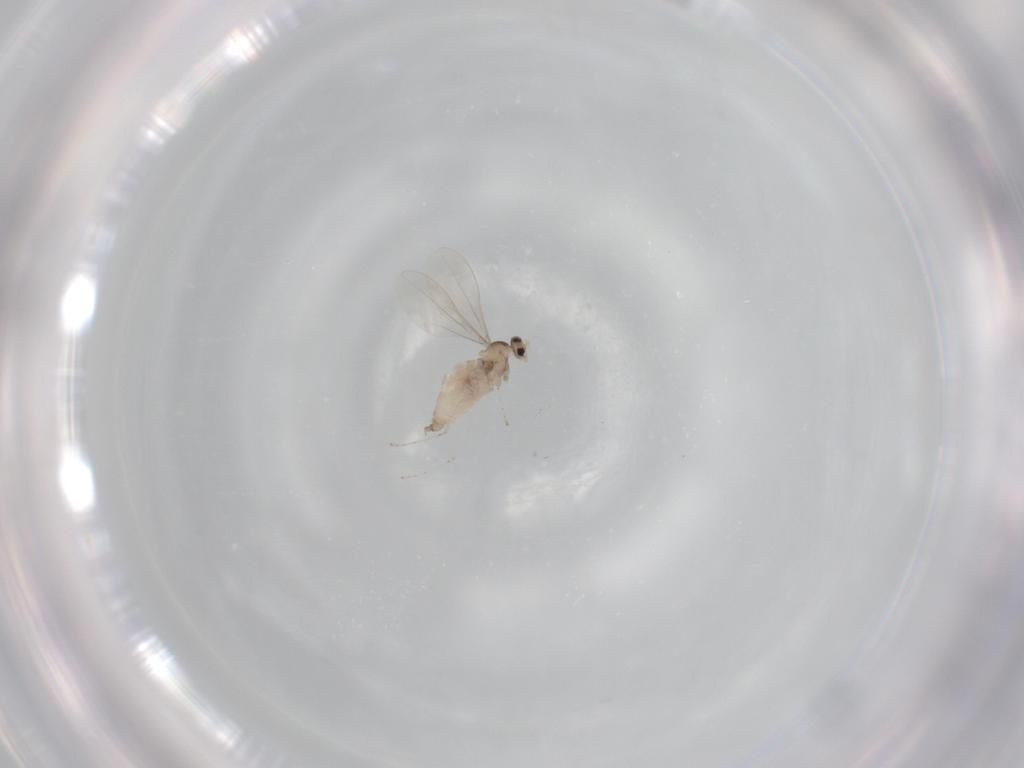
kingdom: Animalia
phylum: Arthropoda
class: Insecta
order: Diptera
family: Cecidomyiidae
